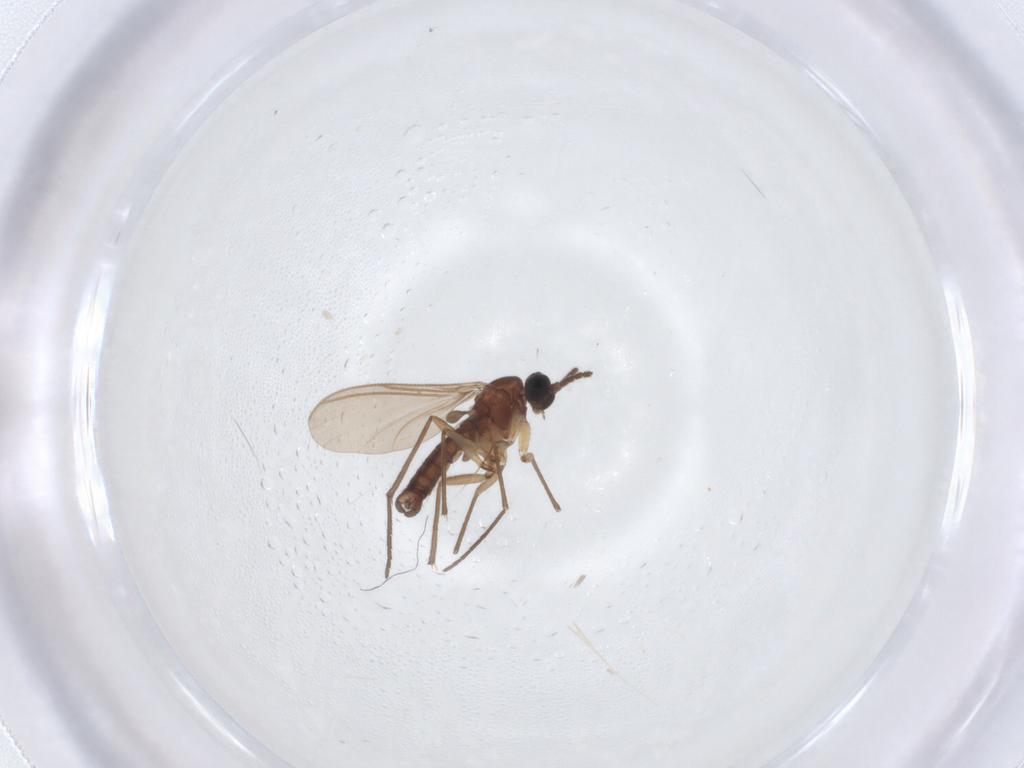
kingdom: Animalia
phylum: Arthropoda
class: Insecta
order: Diptera
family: Sciaridae
